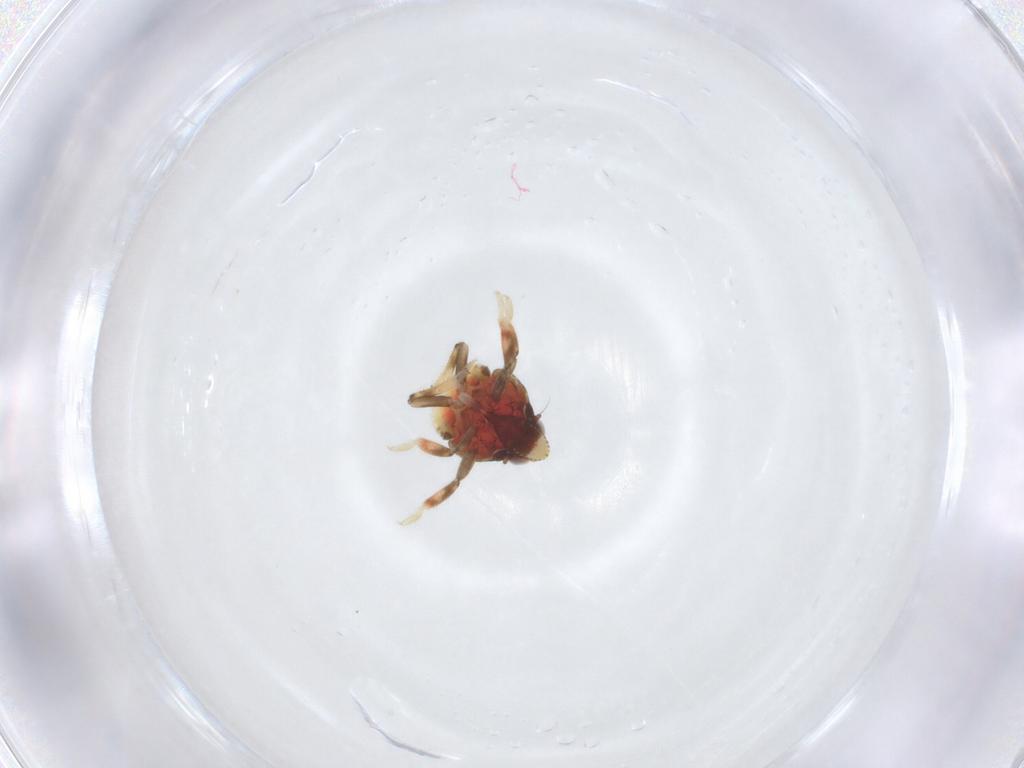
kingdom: Animalia
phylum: Arthropoda
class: Insecta
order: Hemiptera
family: Issidae
